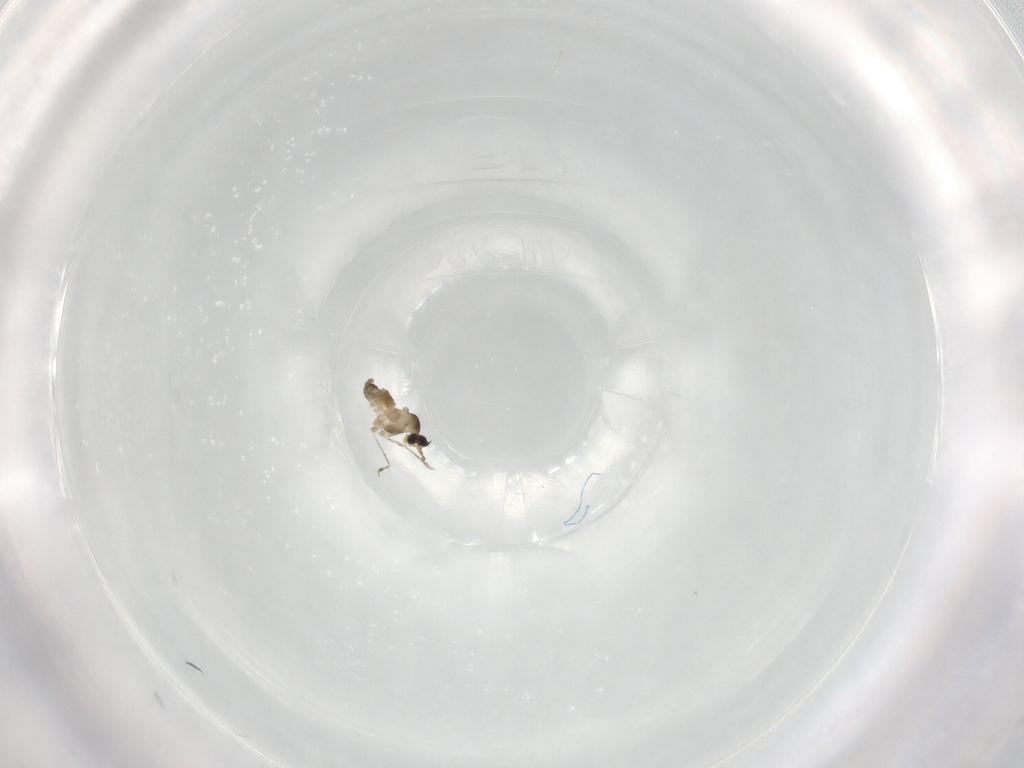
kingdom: Animalia
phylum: Arthropoda
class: Insecta
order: Diptera
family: Cecidomyiidae
